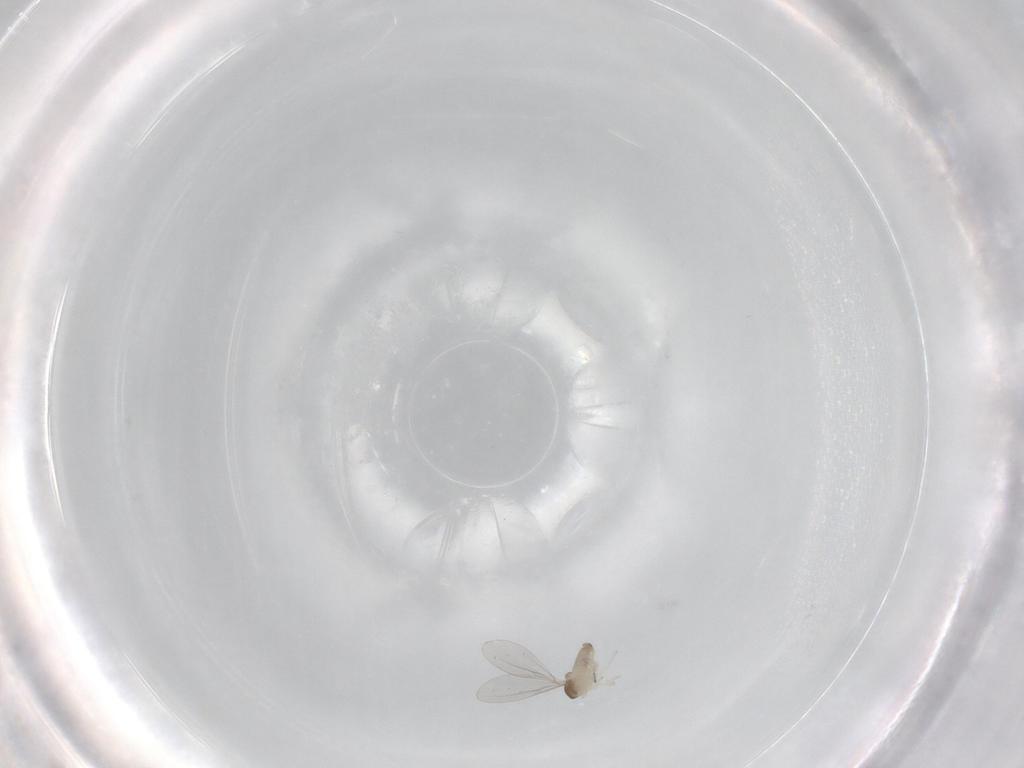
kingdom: Animalia
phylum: Arthropoda
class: Insecta
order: Diptera
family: Cecidomyiidae
